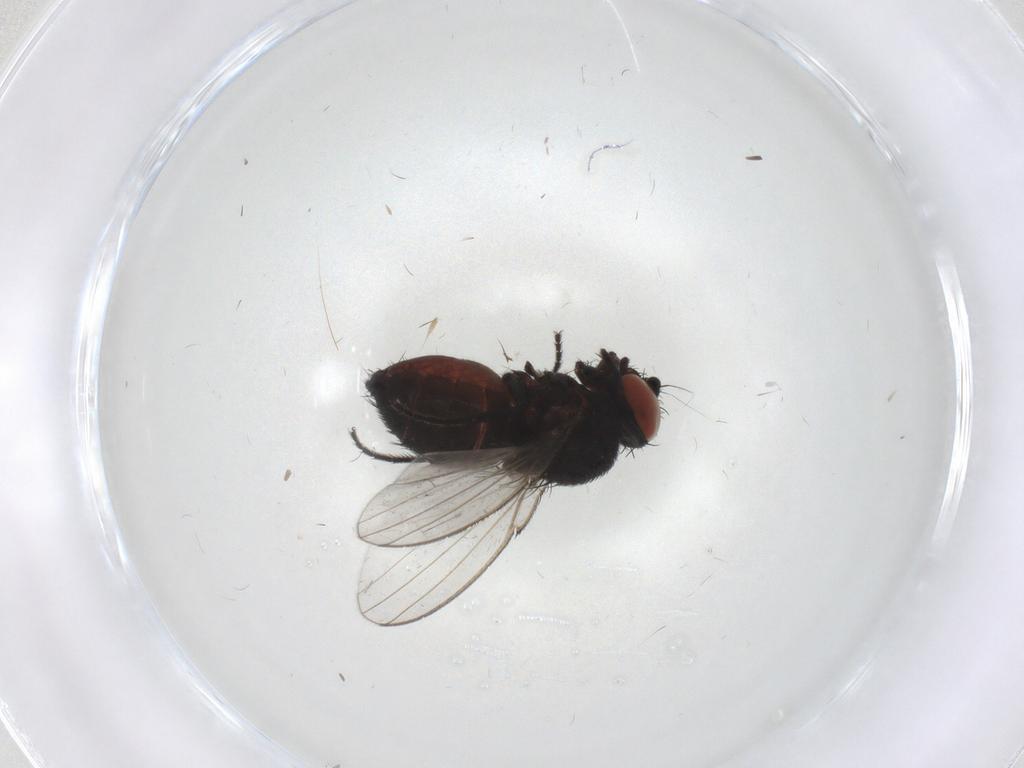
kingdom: Animalia
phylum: Arthropoda
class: Insecta
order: Diptera
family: Milichiidae
